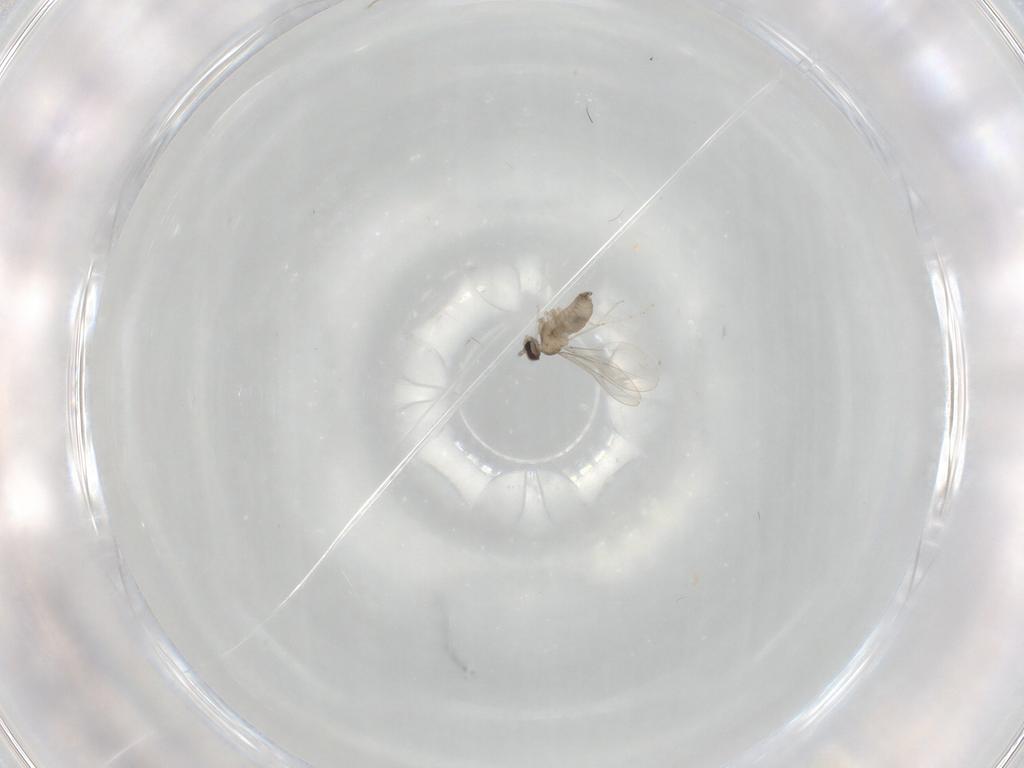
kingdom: Animalia
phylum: Arthropoda
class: Insecta
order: Diptera
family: Cecidomyiidae
